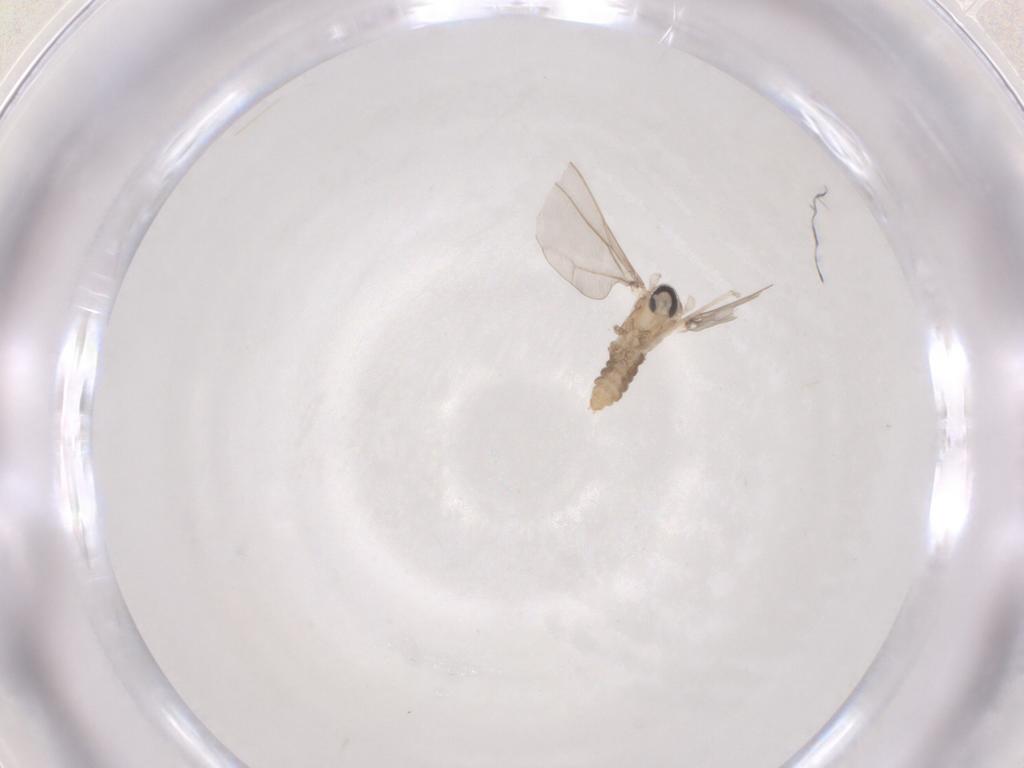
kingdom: Animalia
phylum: Arthropoda
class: Insecta
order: Diptera
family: Cecidomyiidae
